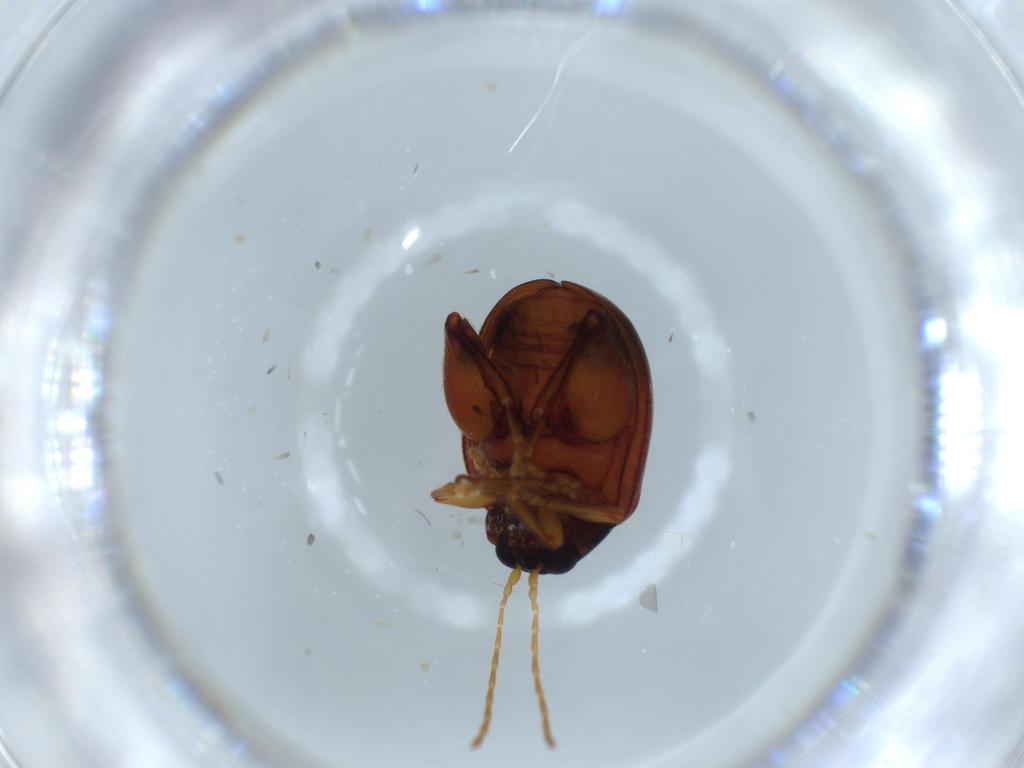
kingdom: Animalia
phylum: Arthropoda
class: Insecta
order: Coleoptera
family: Chrysomelidae
